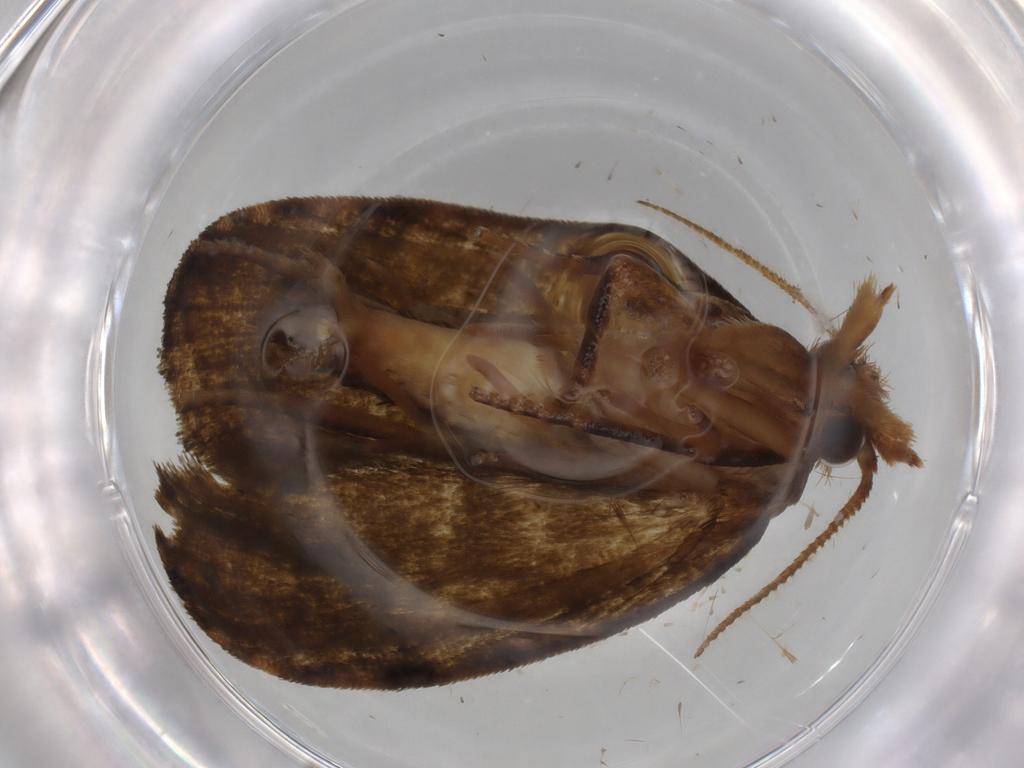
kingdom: Animalia
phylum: Arthropoda
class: Insecta
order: Lepidoptera
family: Geometridae
